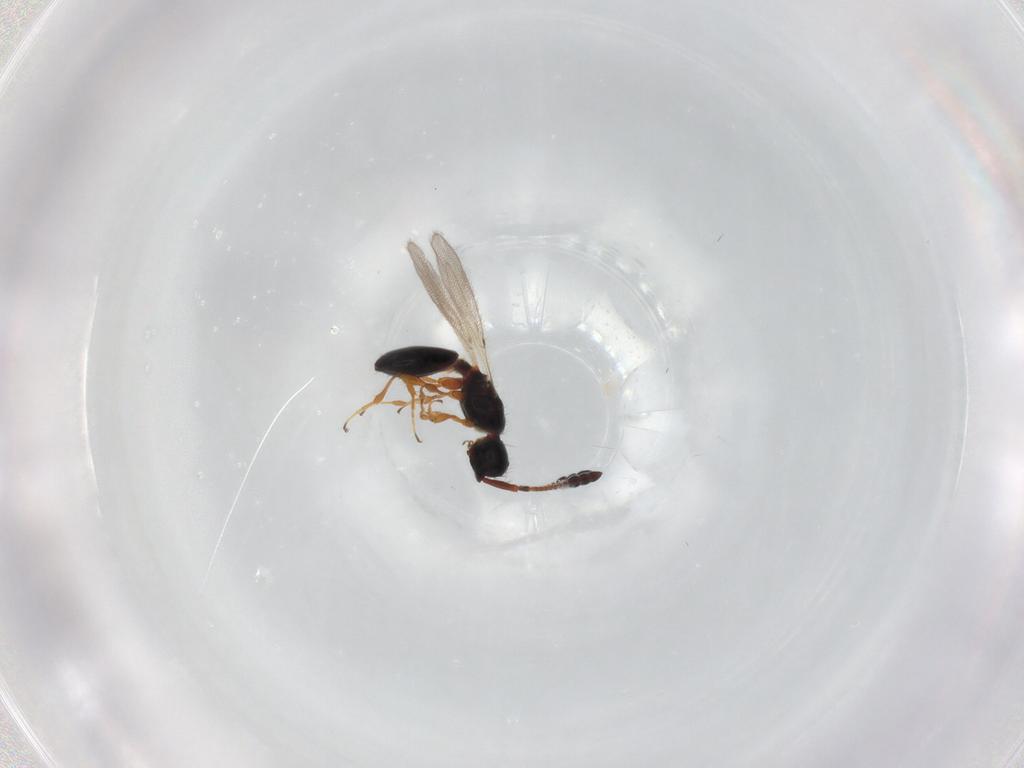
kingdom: Animalia
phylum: Arthropoda
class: Insecta
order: Hymenoptera
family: Diapriidae
